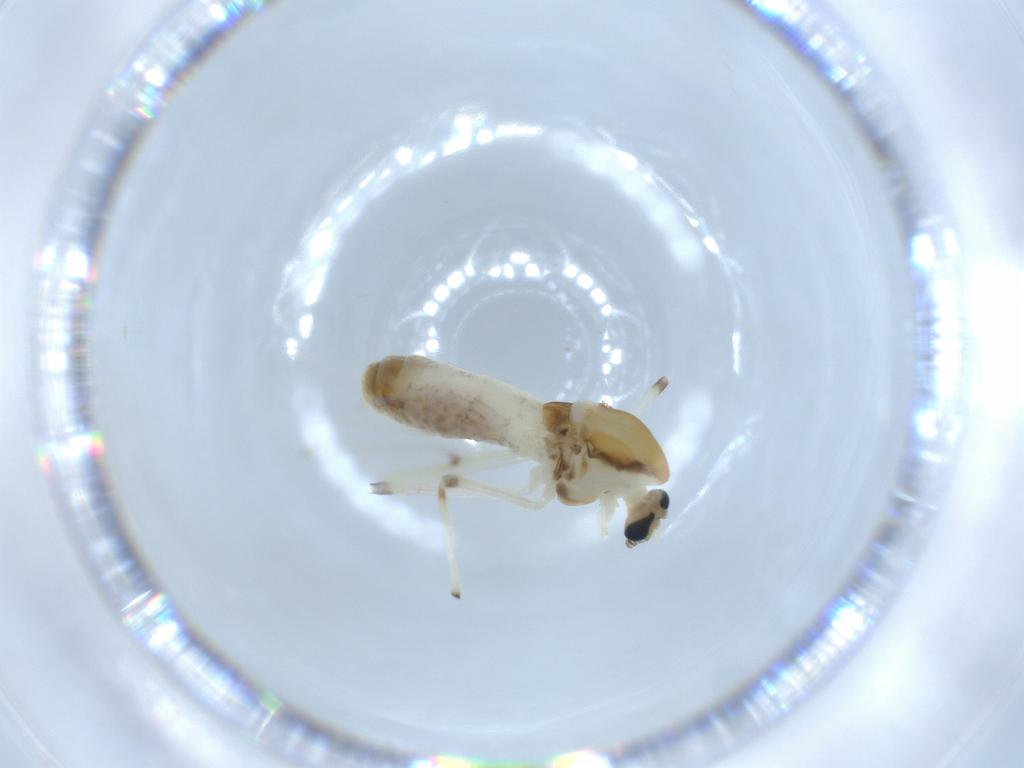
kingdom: Animalia
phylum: Arthropoda
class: Insecta
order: Diptera
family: Chironomidae
